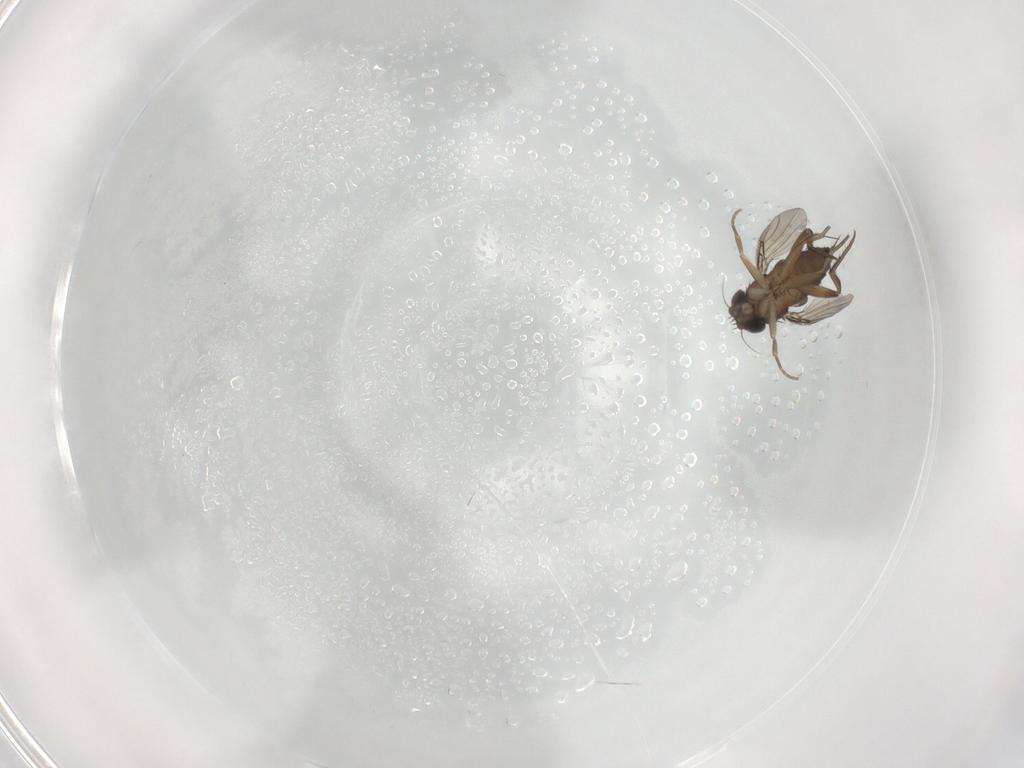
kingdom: Animalia
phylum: Arthropoda
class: Insecta
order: Diptera
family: Phoridae
